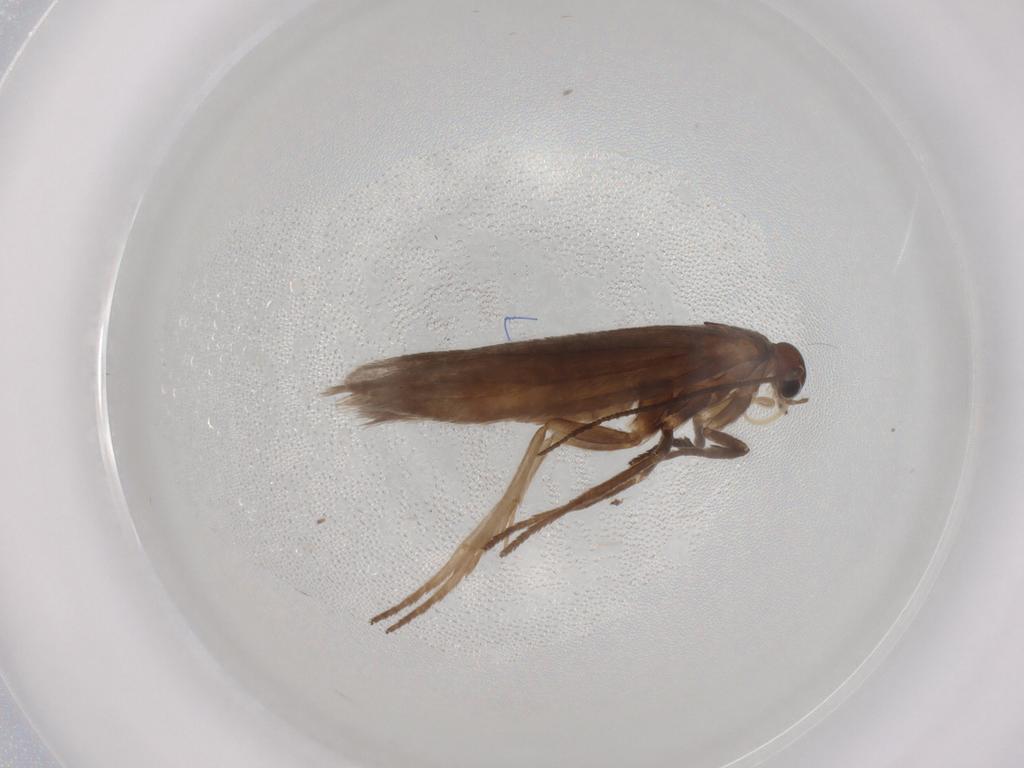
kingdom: Animalia
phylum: Arthropoda
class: Insecta
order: Lepidoptera
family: Limacodidae
